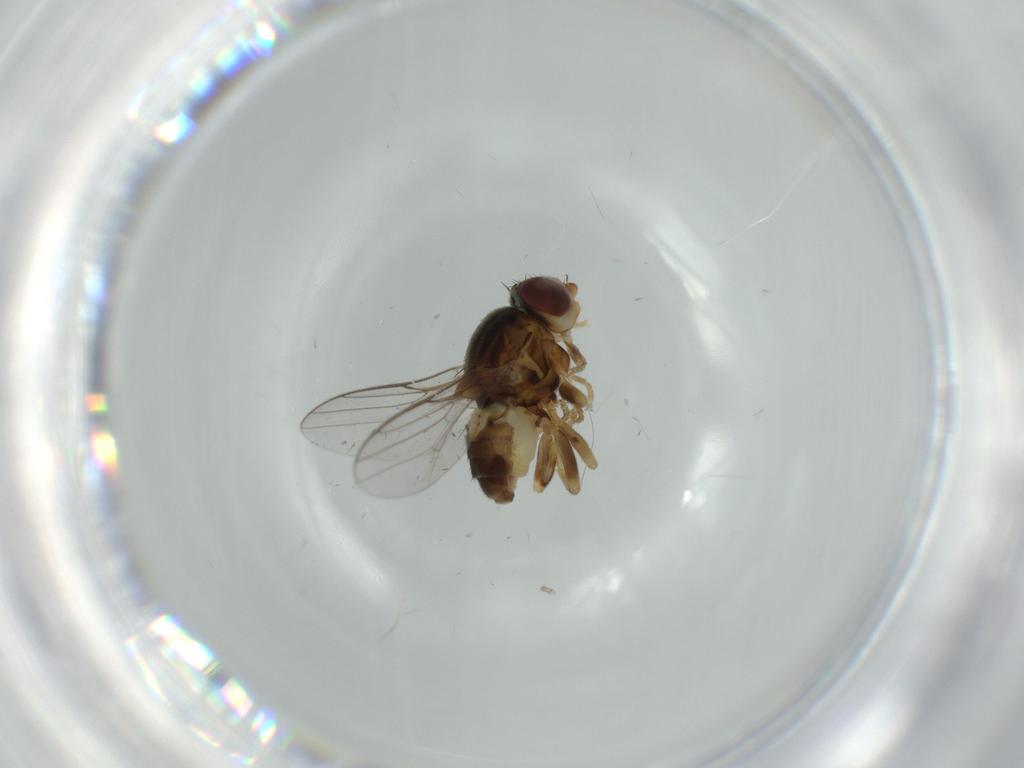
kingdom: Animalia
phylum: Arthropoda
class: Insecta
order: Diptera
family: Chloropidae
